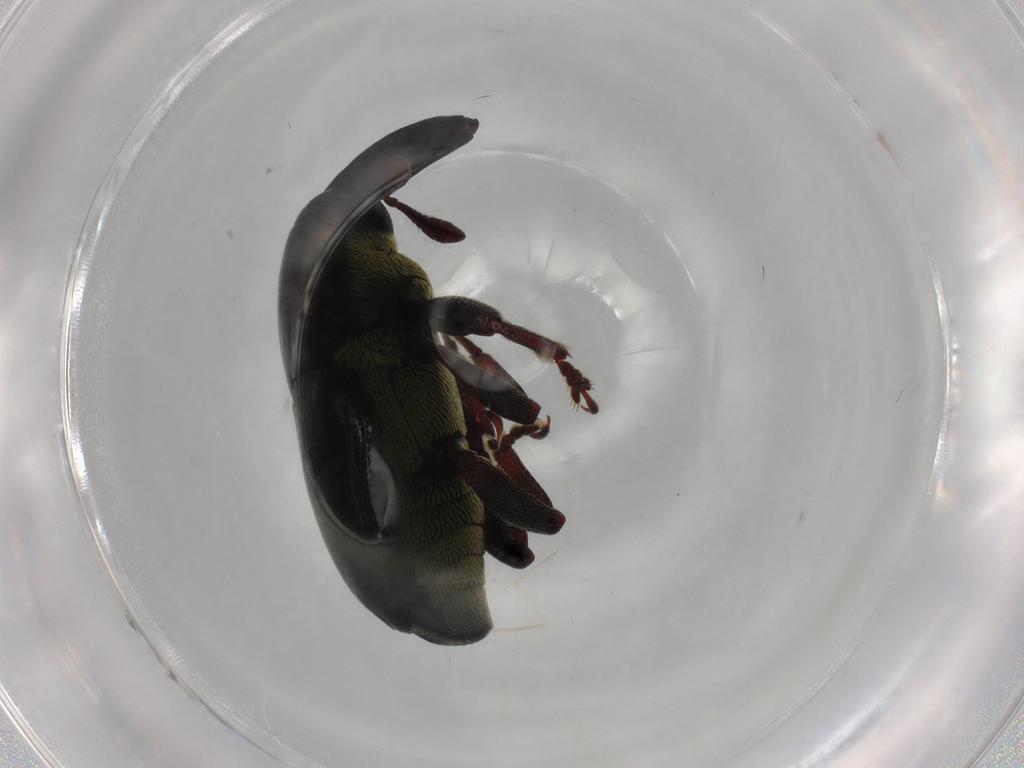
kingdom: Animalia
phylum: Arthropoda
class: Insecta
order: Coleoptera
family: Curculionidae
